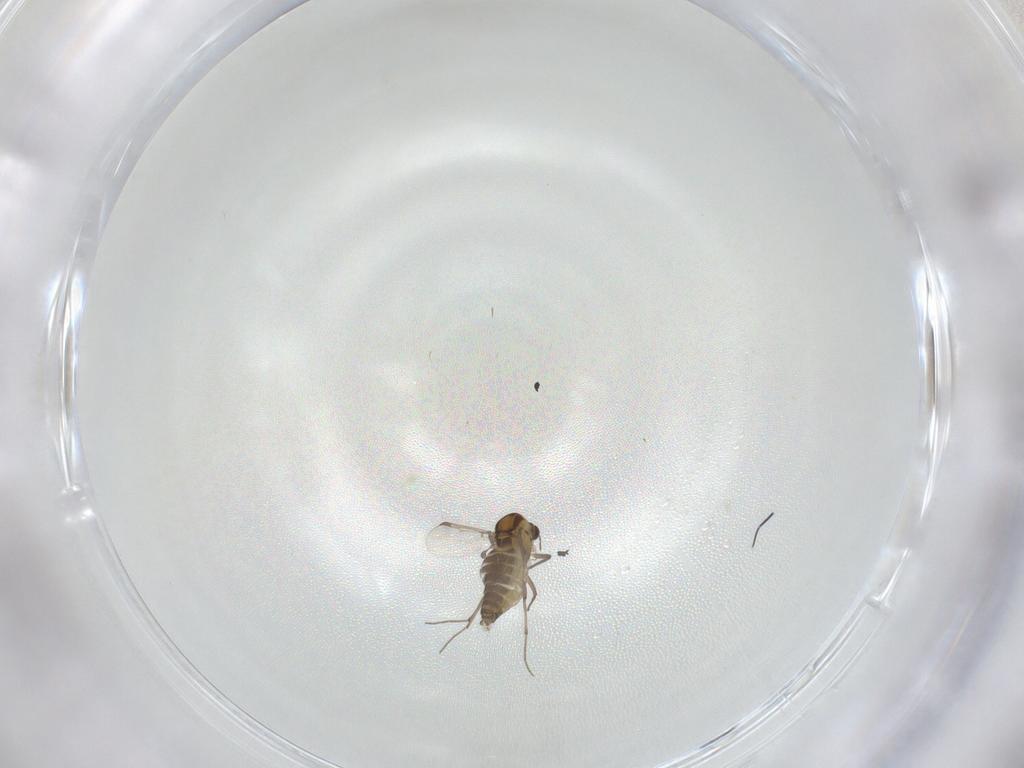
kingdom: Animalia
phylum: Arthropoda
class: Insecta
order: Diptera
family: Chironomidae
